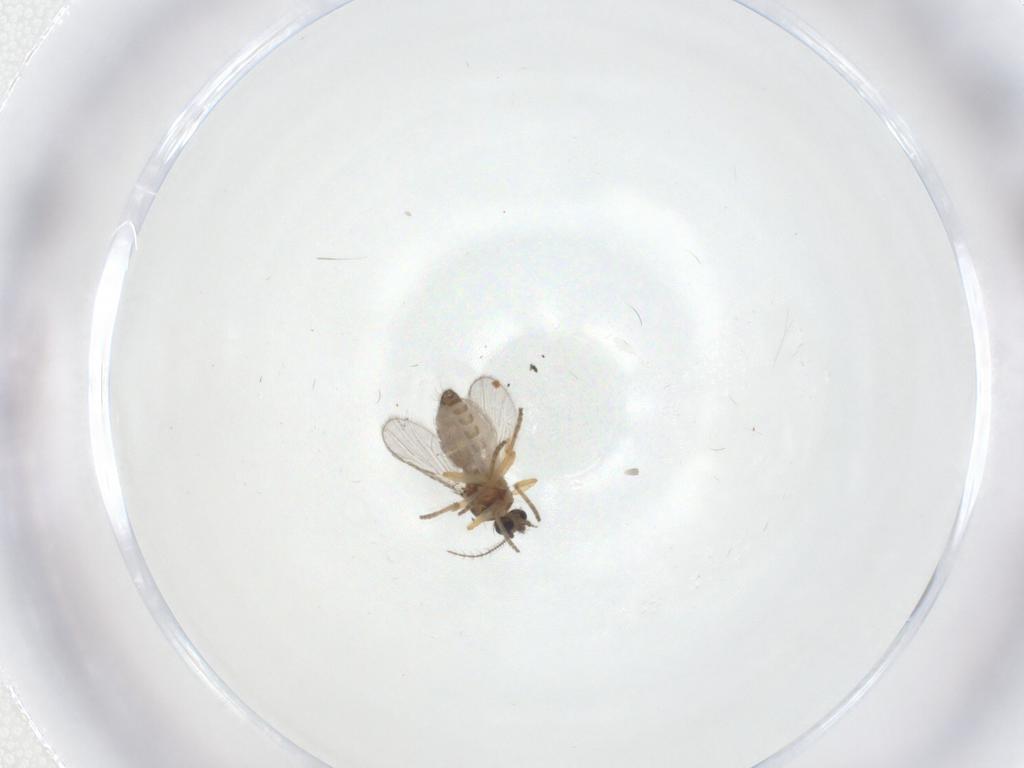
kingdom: Animalia
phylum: Arthropoda
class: Insecta
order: Diptera
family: Ceratopogonidae
